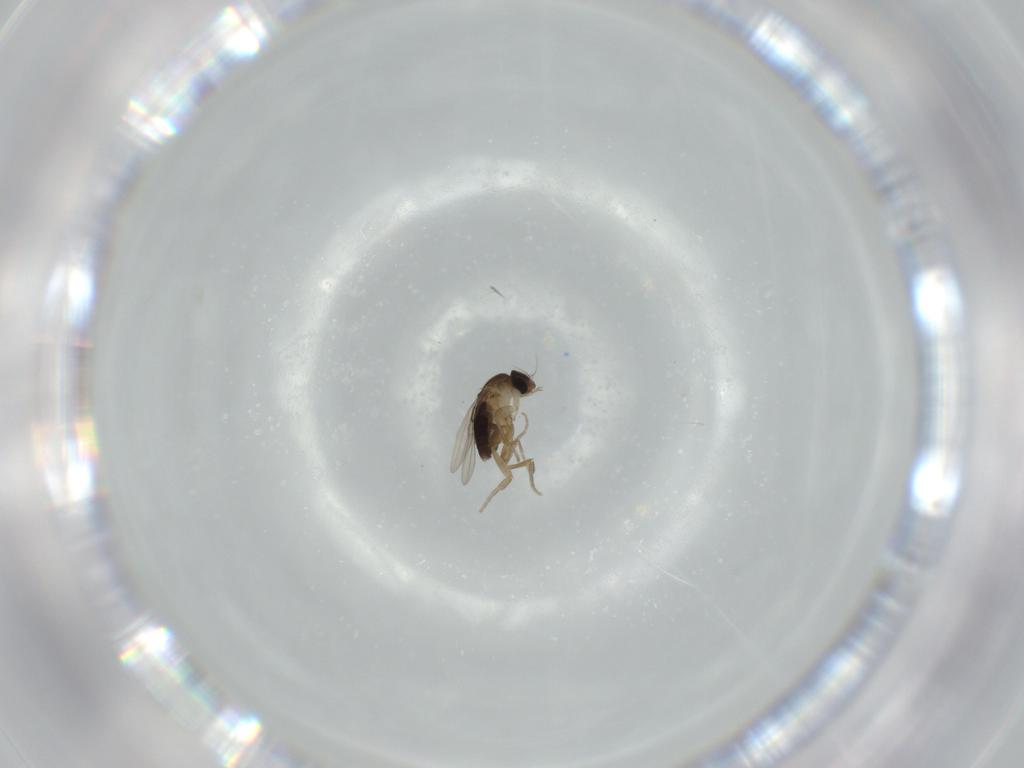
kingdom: Animalia
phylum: Arthropoda
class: Insecta
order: Diptera
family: Phoridae
